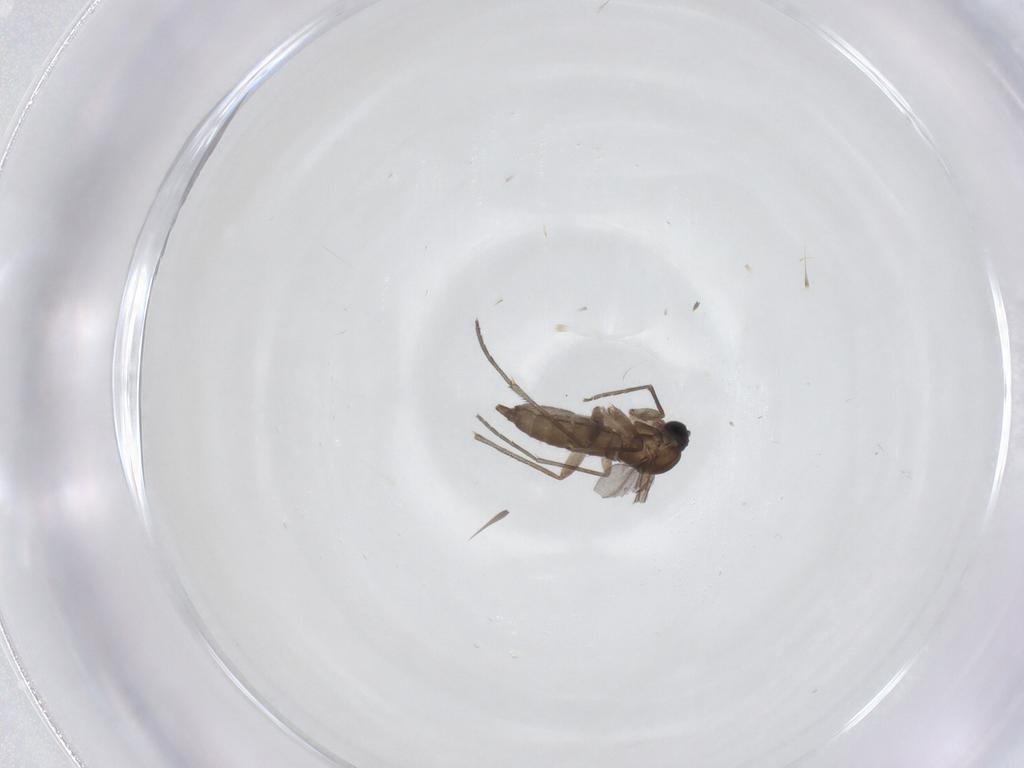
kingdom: Animalia
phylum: Arthropoda
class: Insecta
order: Diptera
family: Sciaridae
